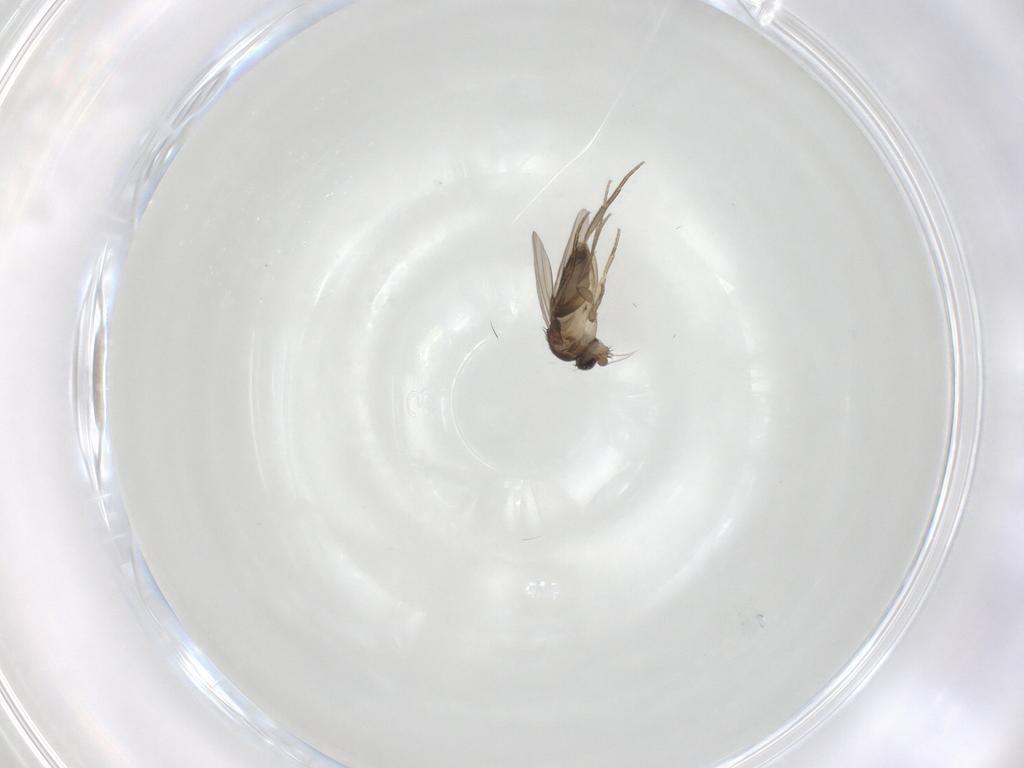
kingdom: Animalia
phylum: Arthropoda
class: Insecta
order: Diptera
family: Phoridae
